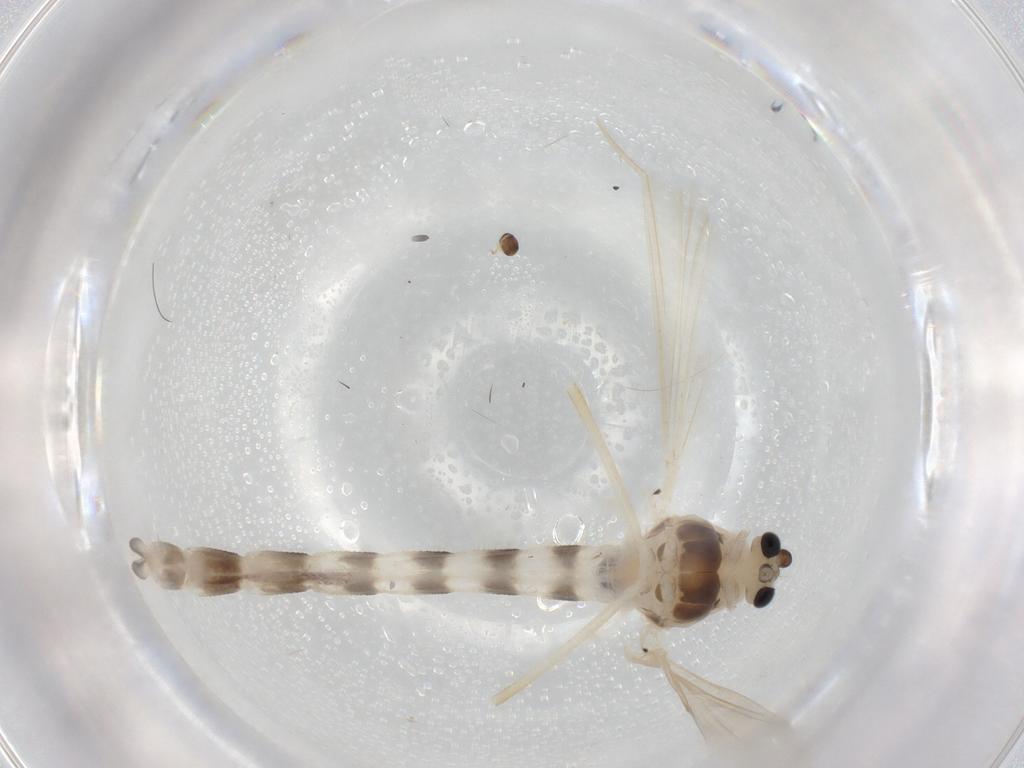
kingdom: Animalia
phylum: Arthropoda
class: Insecta
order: Diptera
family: Chironomidae
